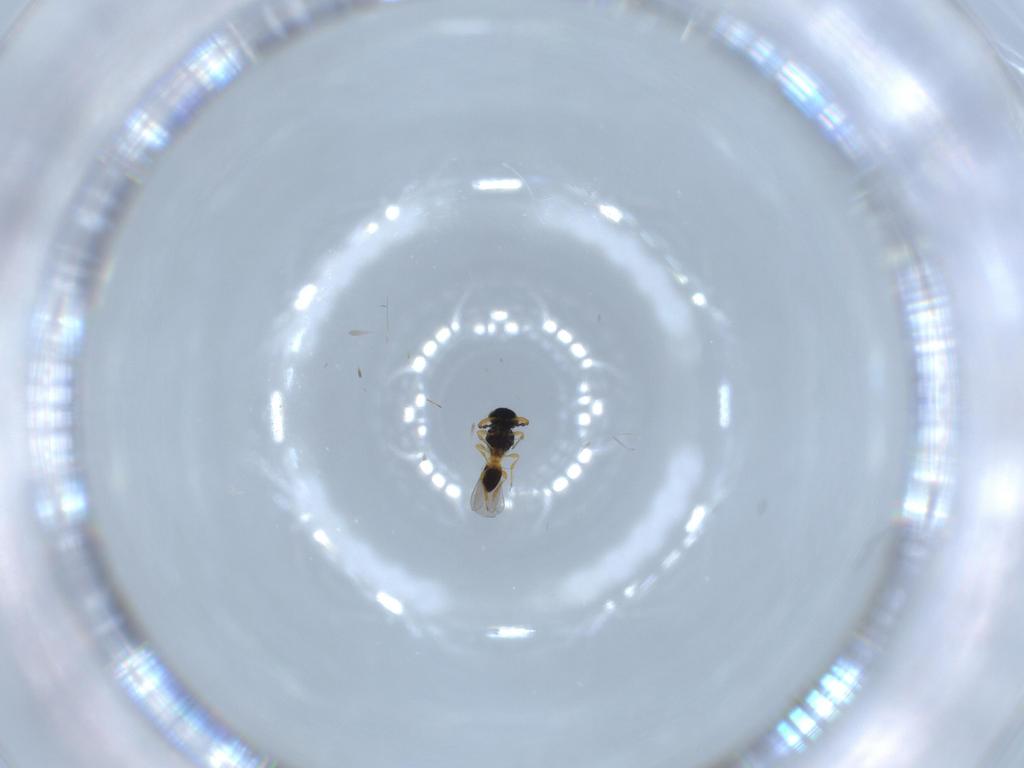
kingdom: Animalia
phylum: Arthropoda
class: Insecta
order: Hymenoptera
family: Platygastridae
